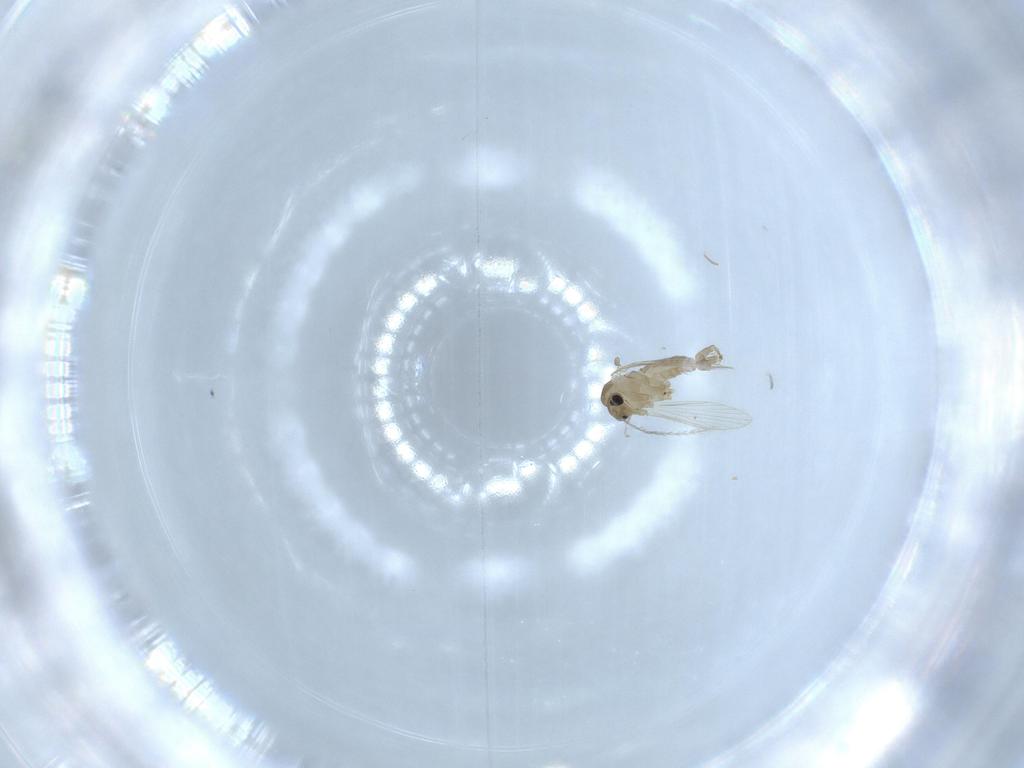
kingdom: Animalia
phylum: Arthropoda
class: Insecta
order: Diptera
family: Psychodidae
